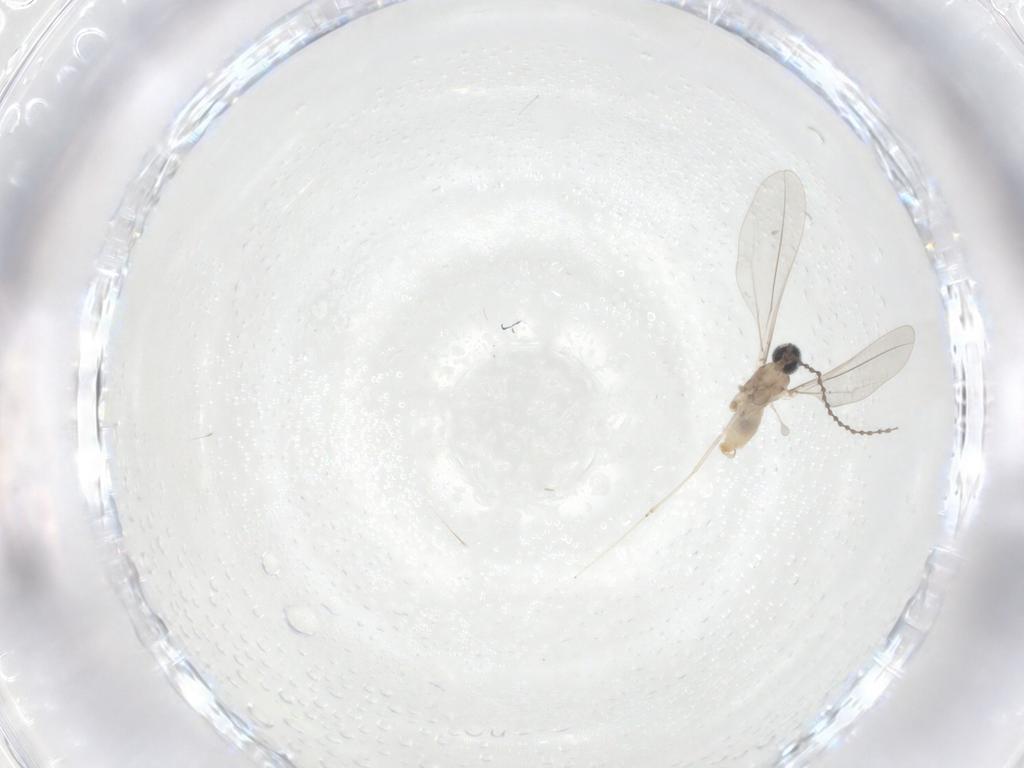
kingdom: Animalia
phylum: Arthropoda
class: Insecta
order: Diptera
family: Cecidomyiidae
